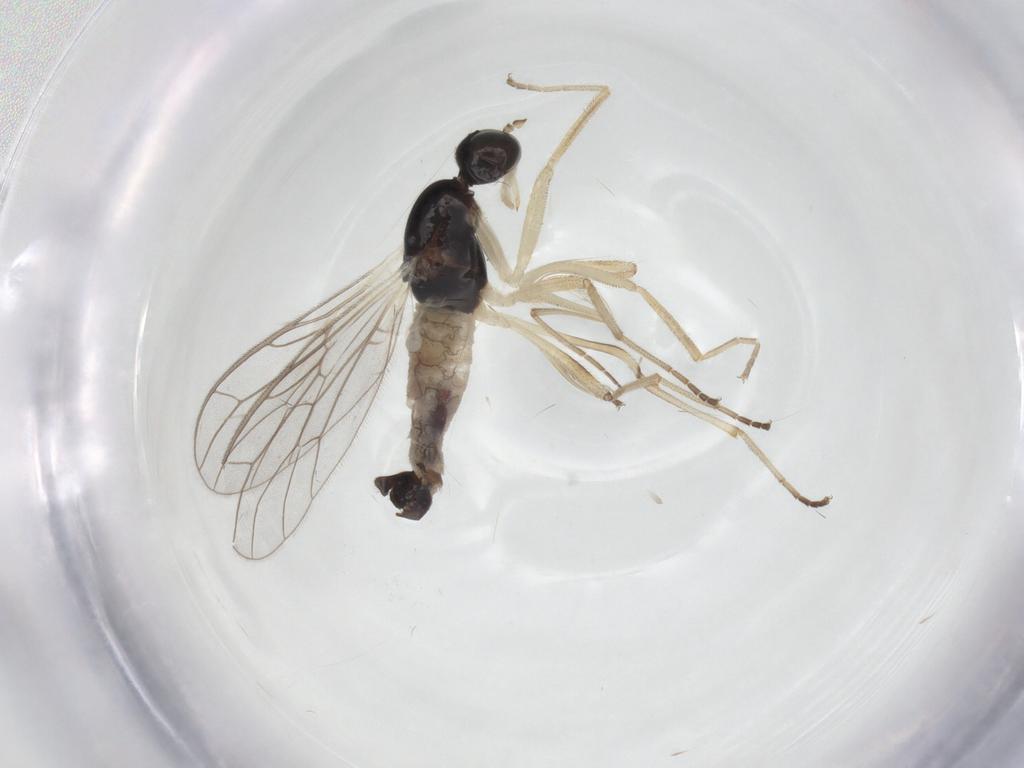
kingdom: Animalia
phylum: Arthropoda
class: Insecta
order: Diptera
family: Empididae
